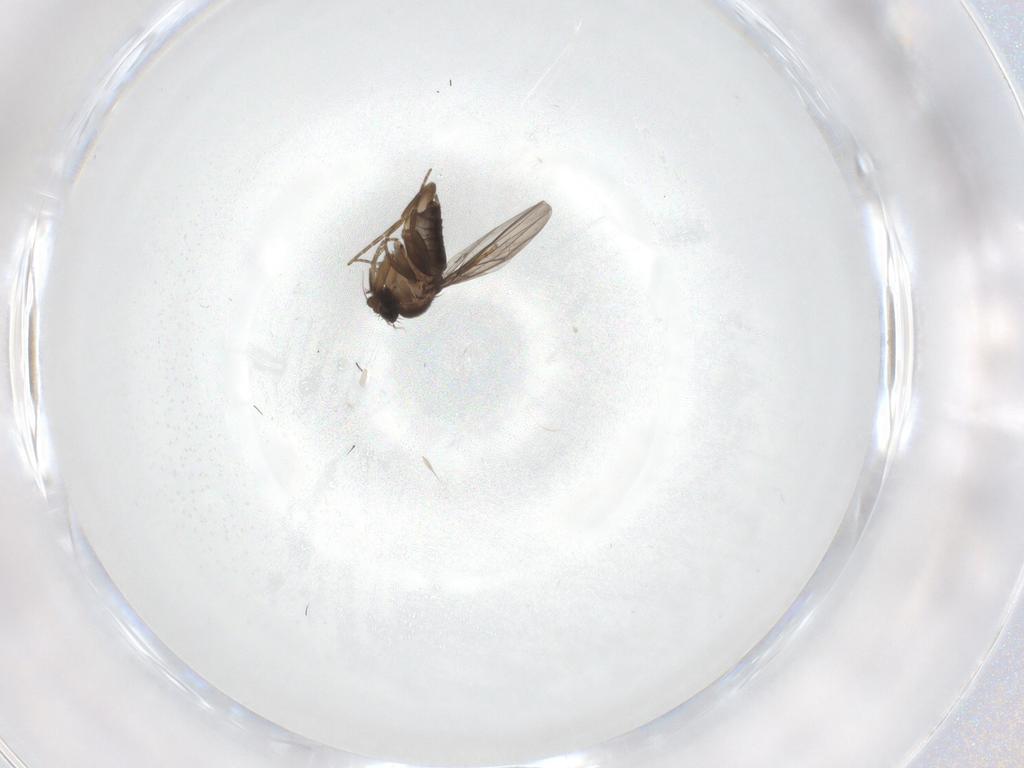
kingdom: Animalia
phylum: Arthropoda
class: Insecta
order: Diptera
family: Phoridae
